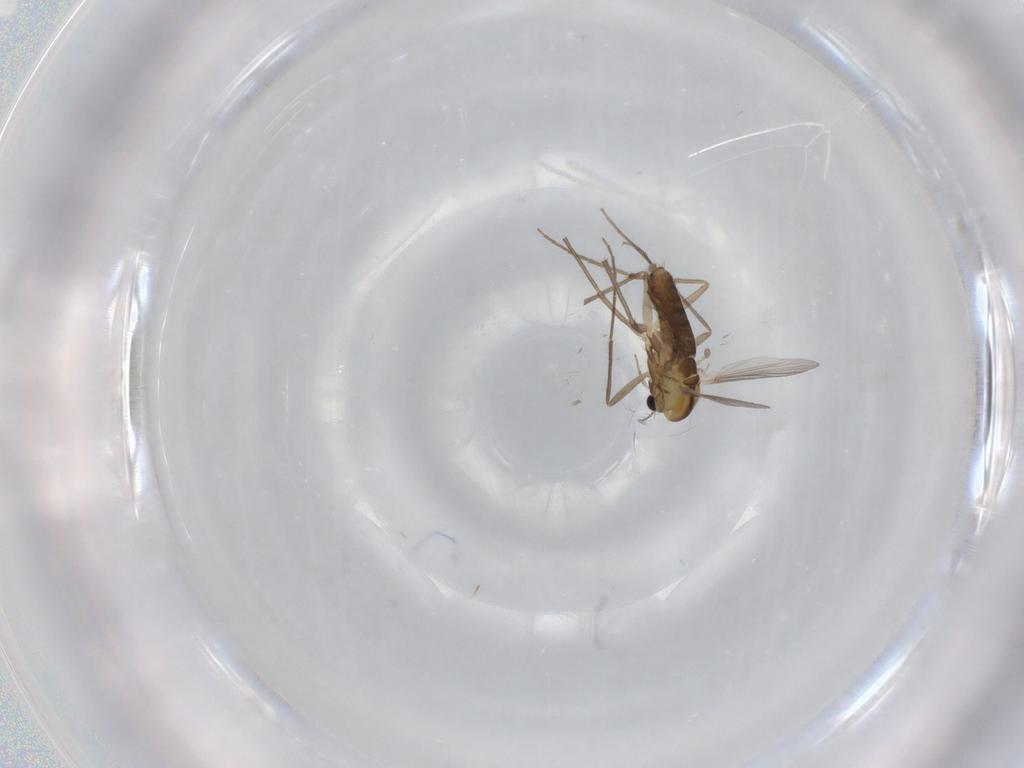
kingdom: Animalia
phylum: Arthropoda
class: Insecta
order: Diptera
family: Chironomidae
